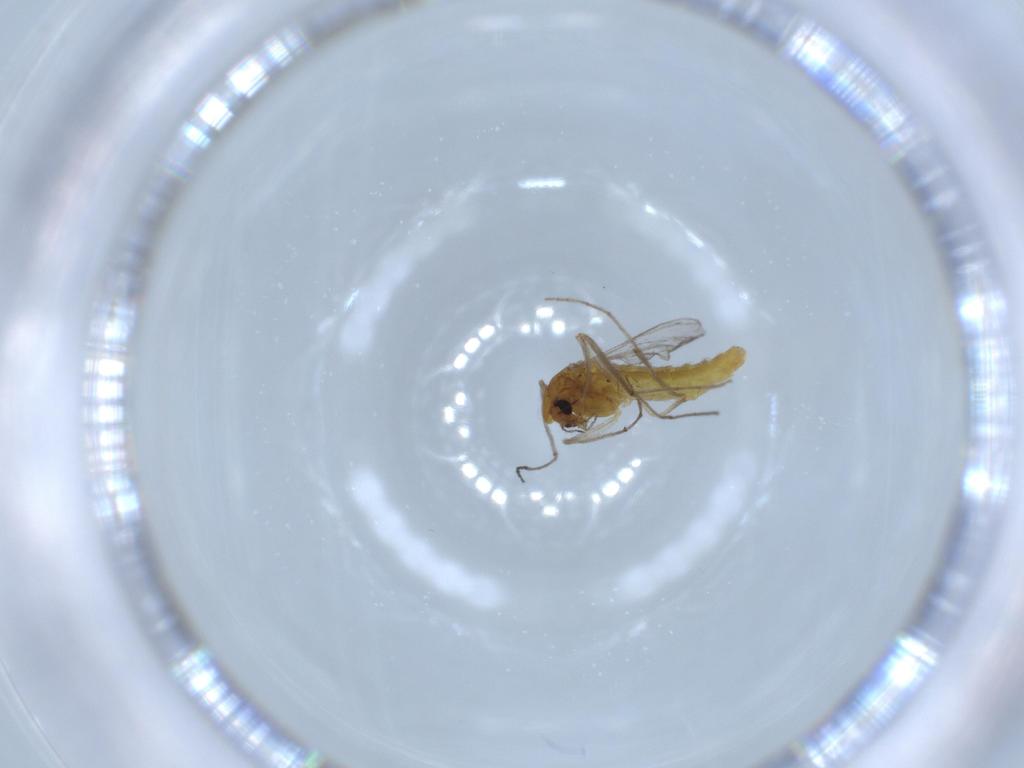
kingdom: Animalia
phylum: Arthropoda
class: Insecta
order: Diptera
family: Chironomidae
